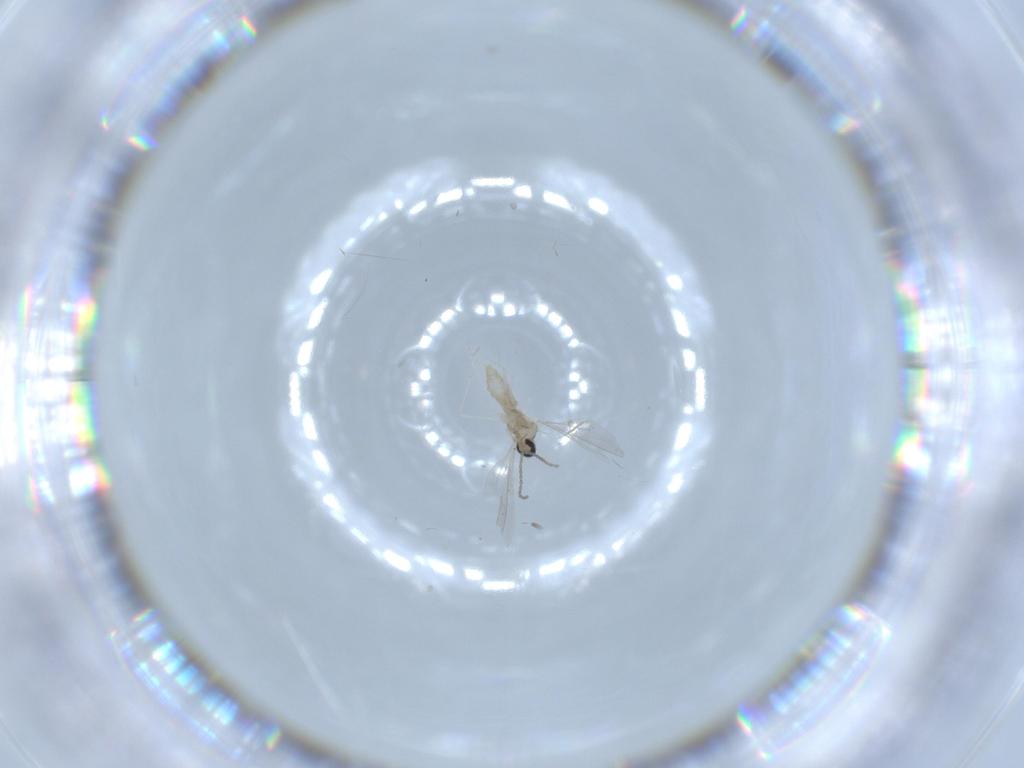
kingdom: Animalia
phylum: Arthropoda
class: Insecta
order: Diptera
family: Cecidomyiidae
